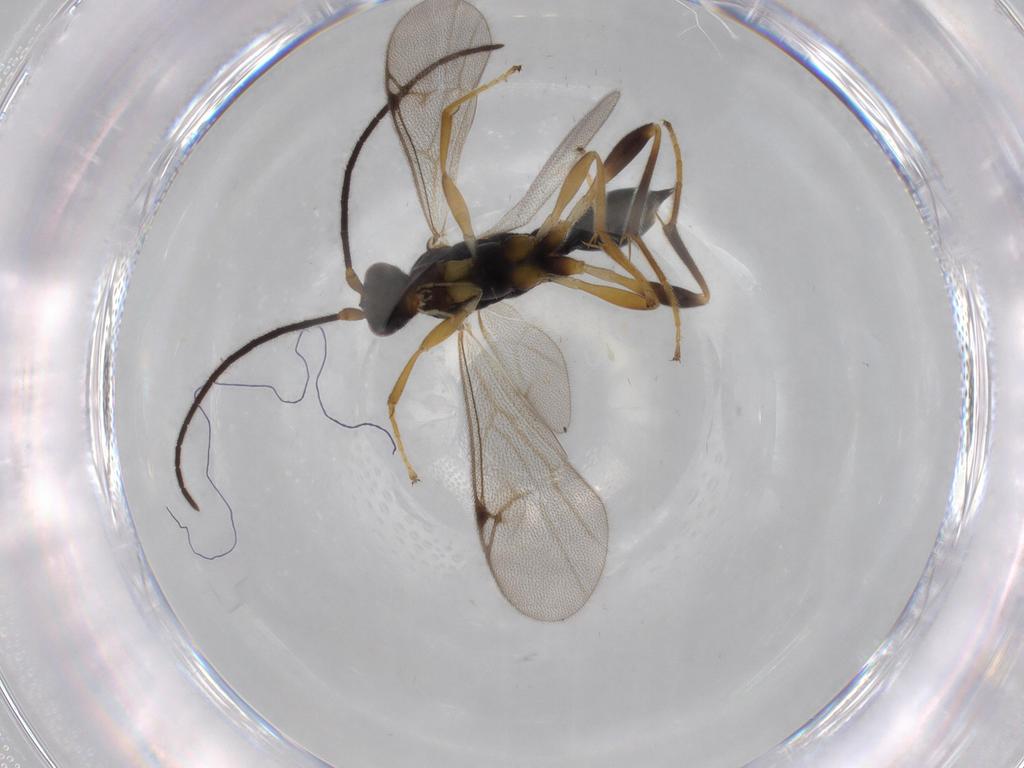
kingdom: Animalia
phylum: Arthropoda
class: Insecta
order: Hymenoptera
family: Proctotrupidae
